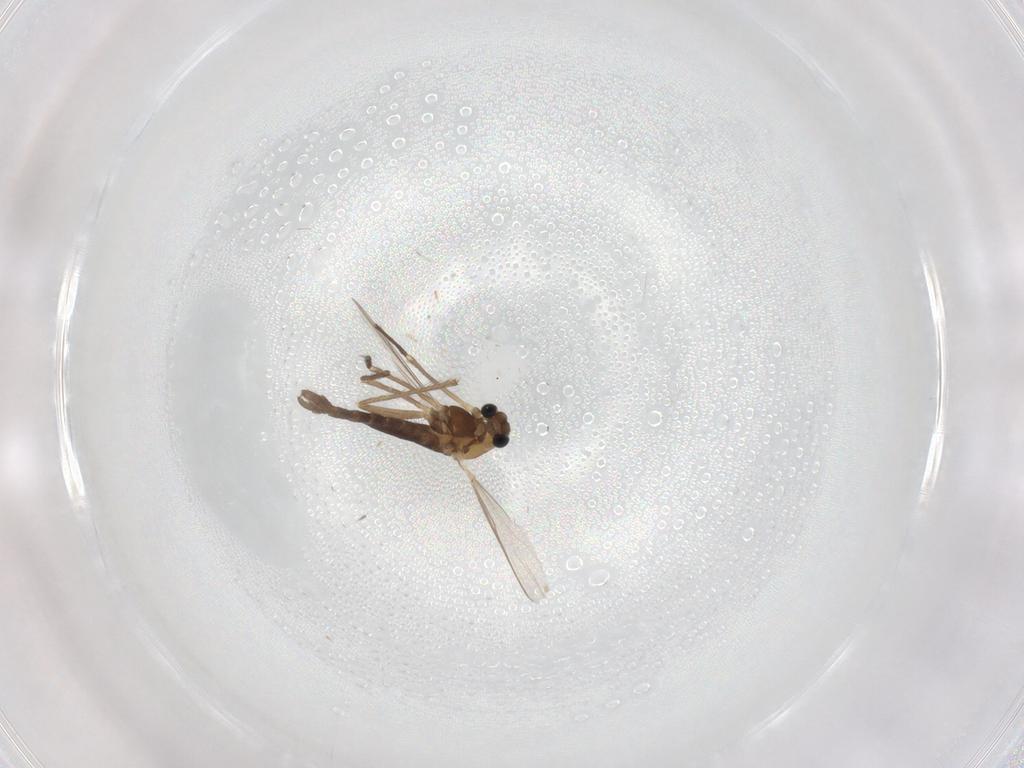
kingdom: Animalia
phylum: Arthropoda
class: Insecta
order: Diptera
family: Chironomidae
